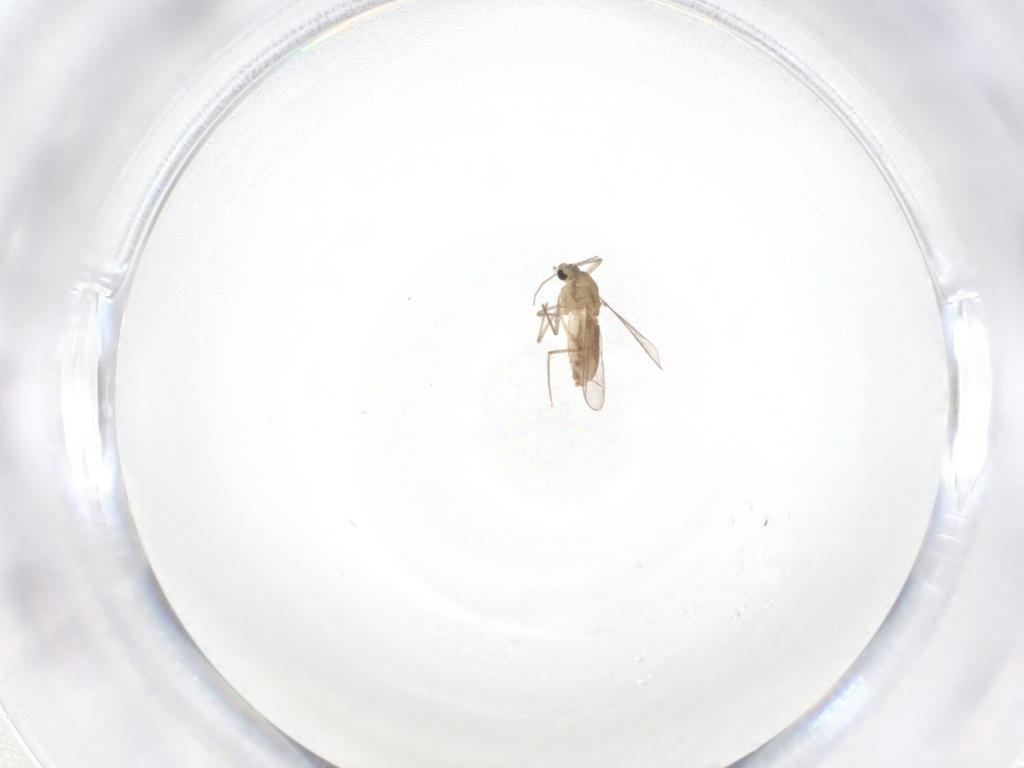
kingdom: Animalia
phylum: Arthropoda
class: Insecta
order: Diptera
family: Chironomidae
